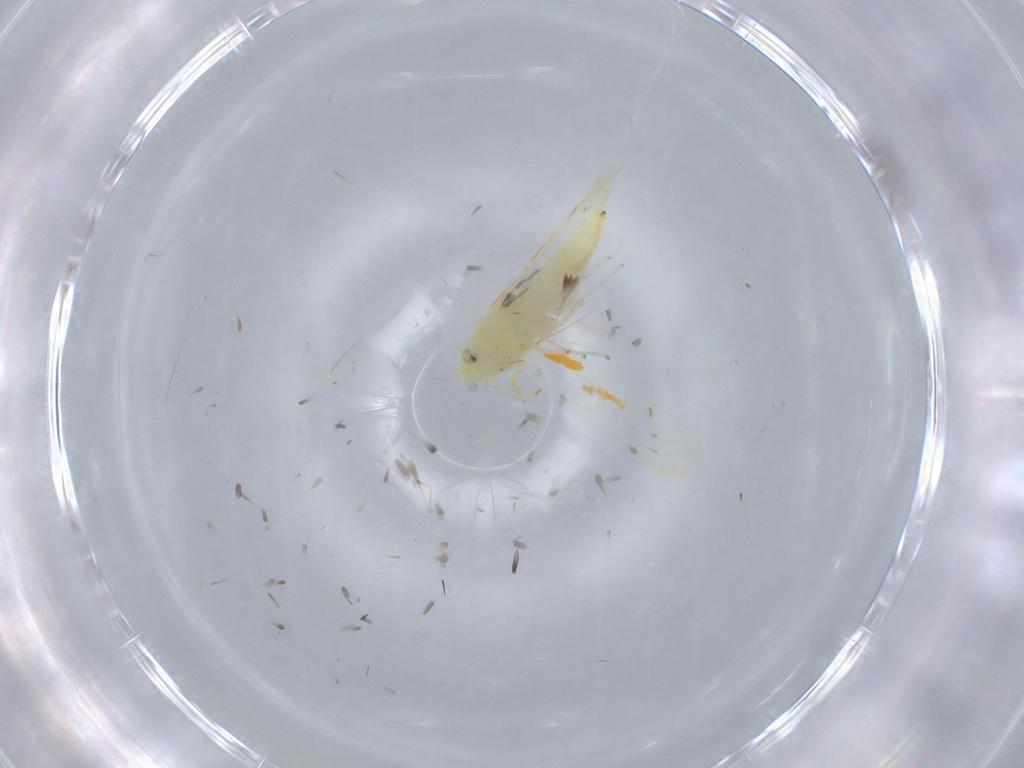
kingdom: Animalia
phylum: Arthropoda
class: Insecta
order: Hemiptera
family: Cicadellidae
